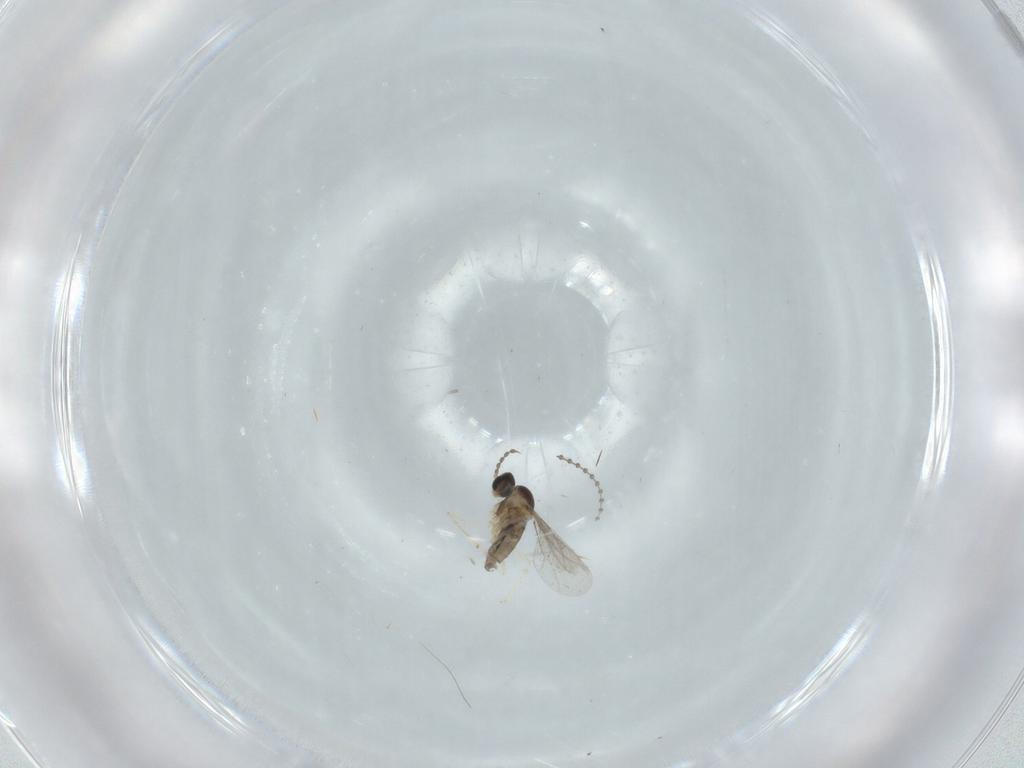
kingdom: Animalia
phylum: Arthropoda
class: Insecta
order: Diptera
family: Cecidomyiidae
